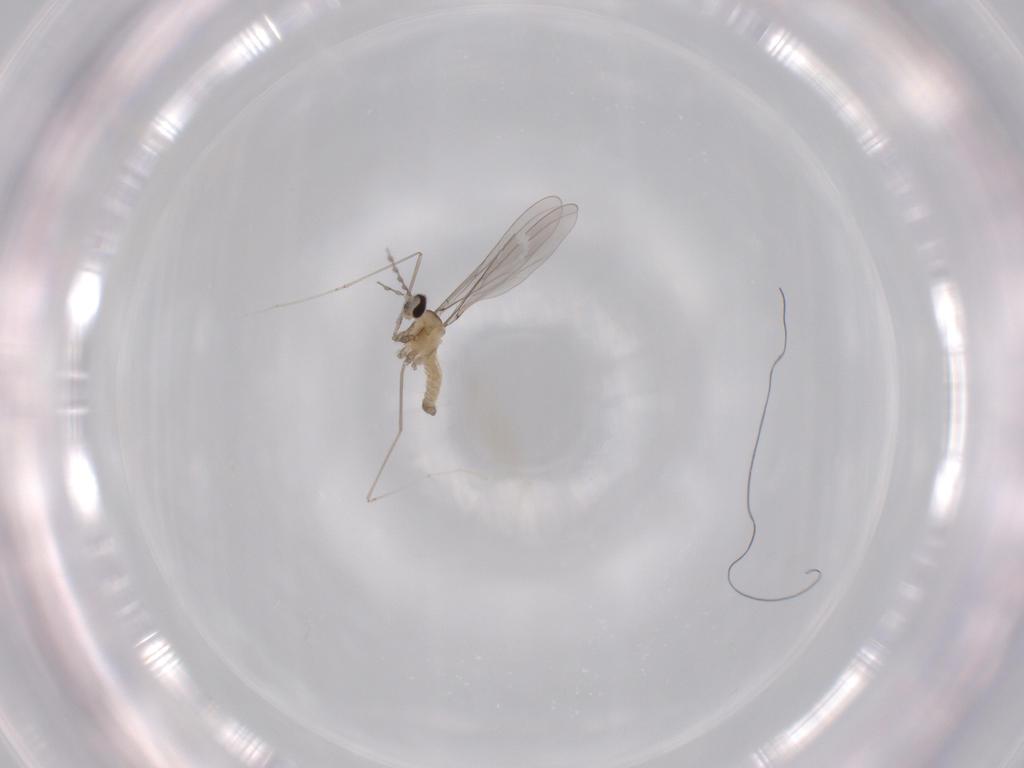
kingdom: Animalia
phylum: Arthropoda
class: Insecta
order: Diptera
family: Cecidomyiidae
